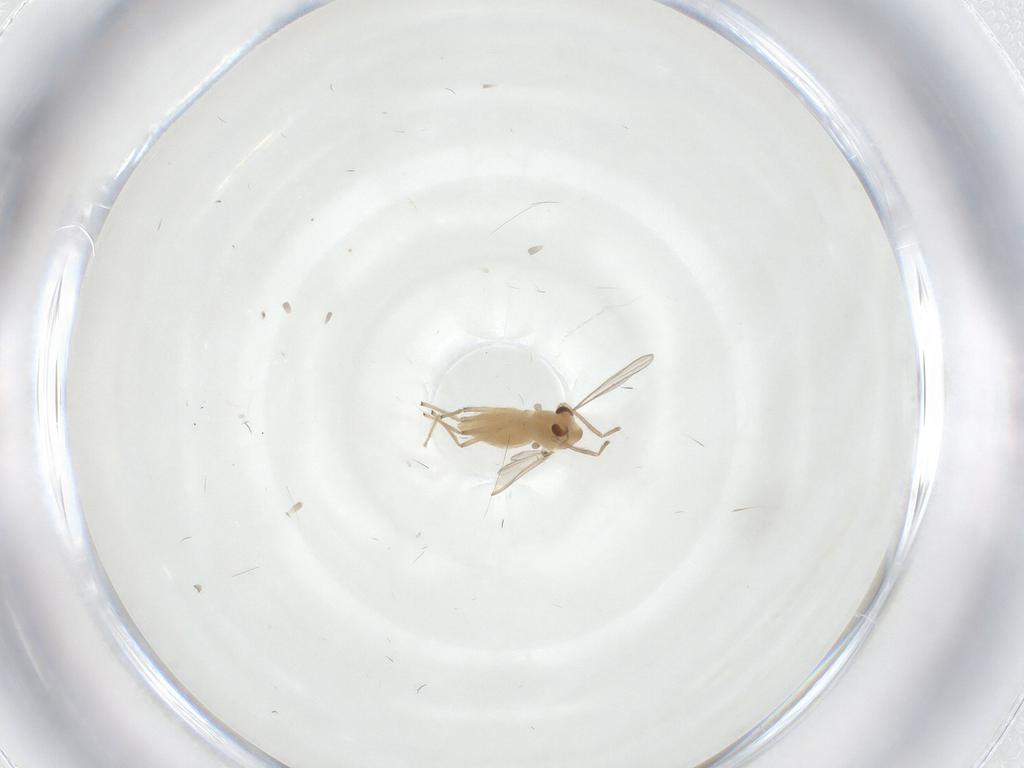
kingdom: Animalia
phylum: Arthropoda
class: Insecta
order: Diptera
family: Chironomidae
